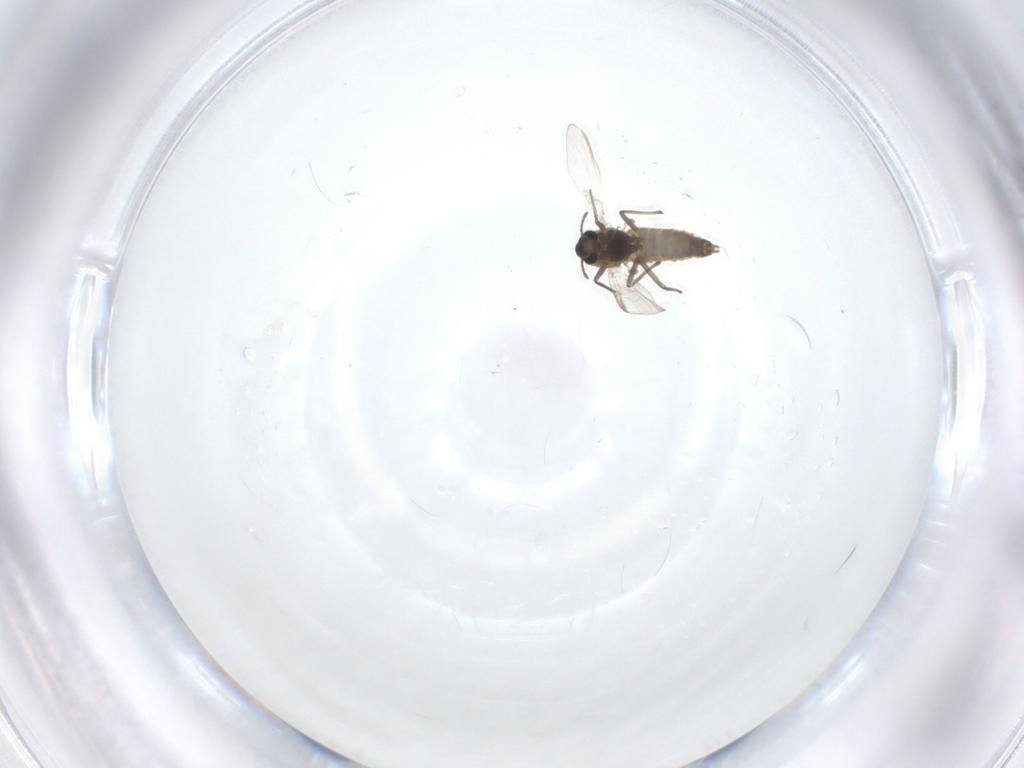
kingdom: Animalia
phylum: Arthropoda
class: Insecta
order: Diptera
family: Chironomidae
